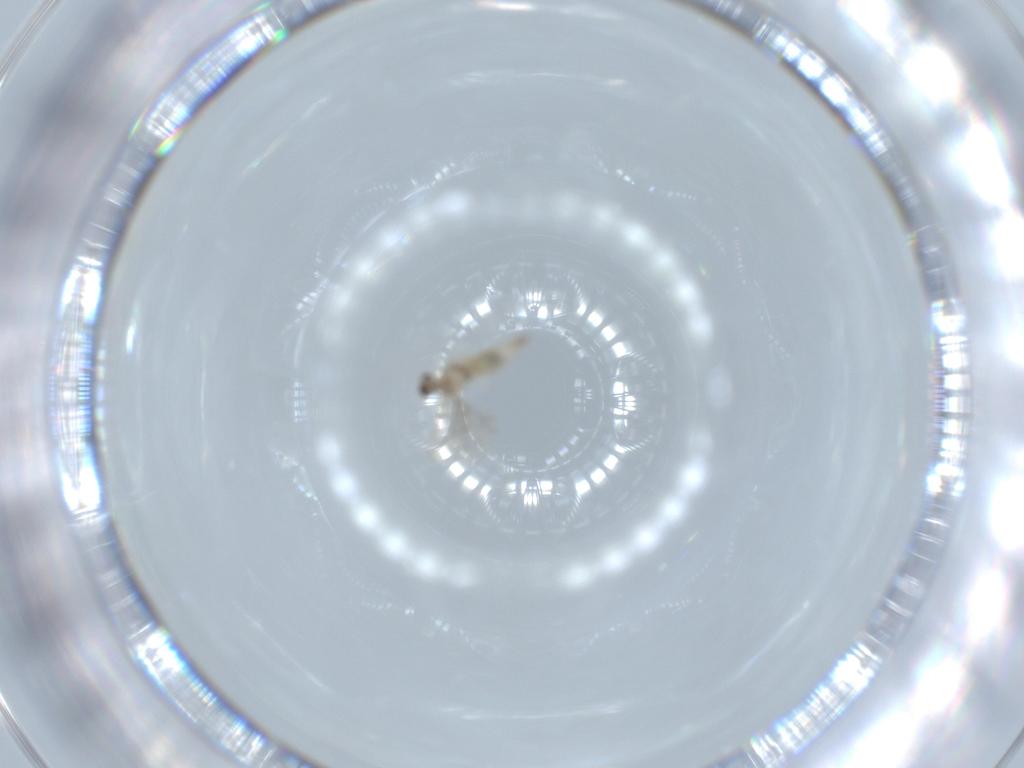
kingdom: Animalia
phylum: Arthropoda
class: Insecta
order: Diptera
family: Cecidomyiidae
